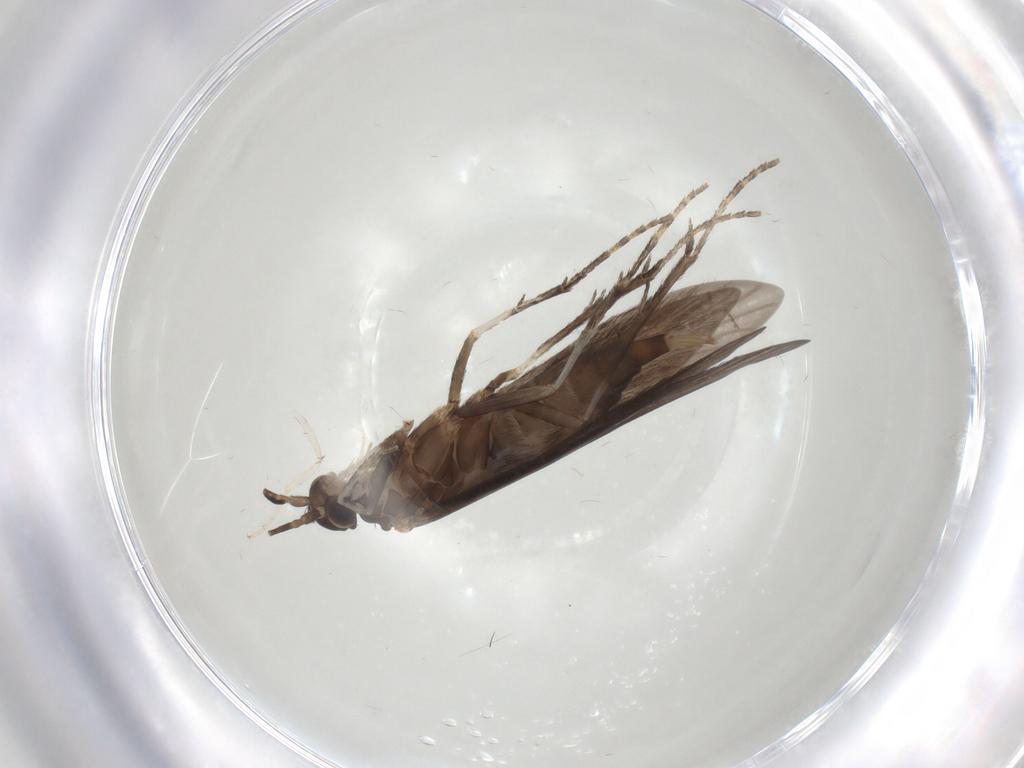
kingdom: Animalia
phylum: Arthropoda
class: Insecta
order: Trichoptera
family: Xiphocentronidae
